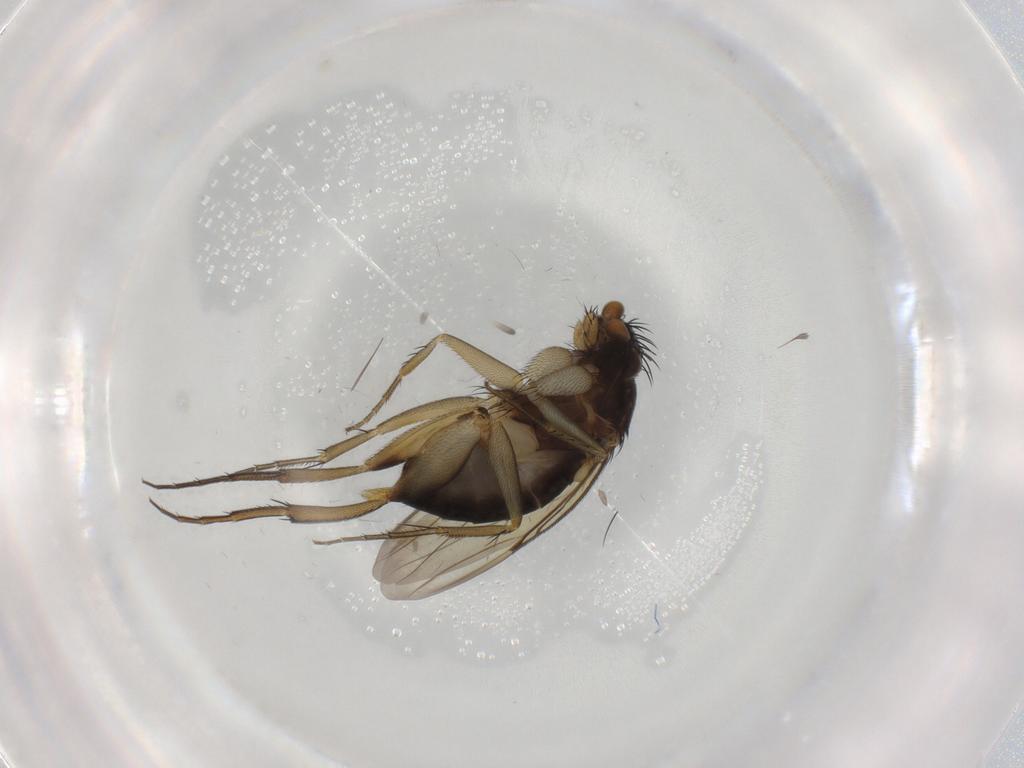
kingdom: Animalia
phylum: Arthropoda
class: Insecta
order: Diptera
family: Phoridae
